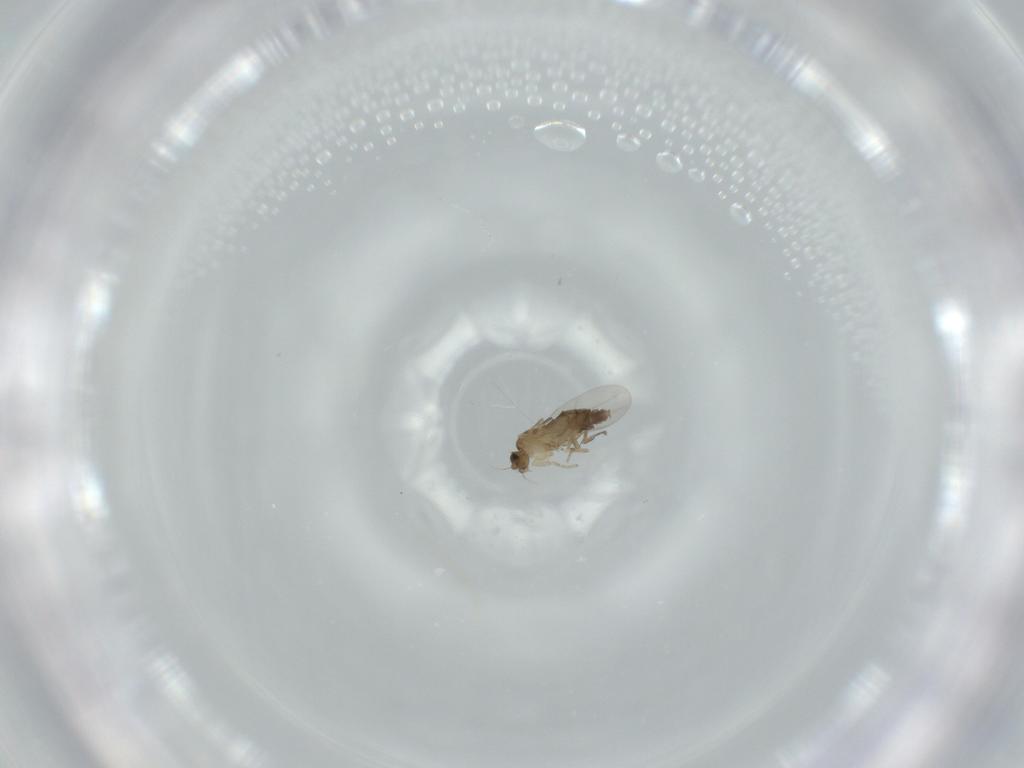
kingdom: Animalia
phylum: Arthropoda
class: Insecta
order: Diptera
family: Phoridae
